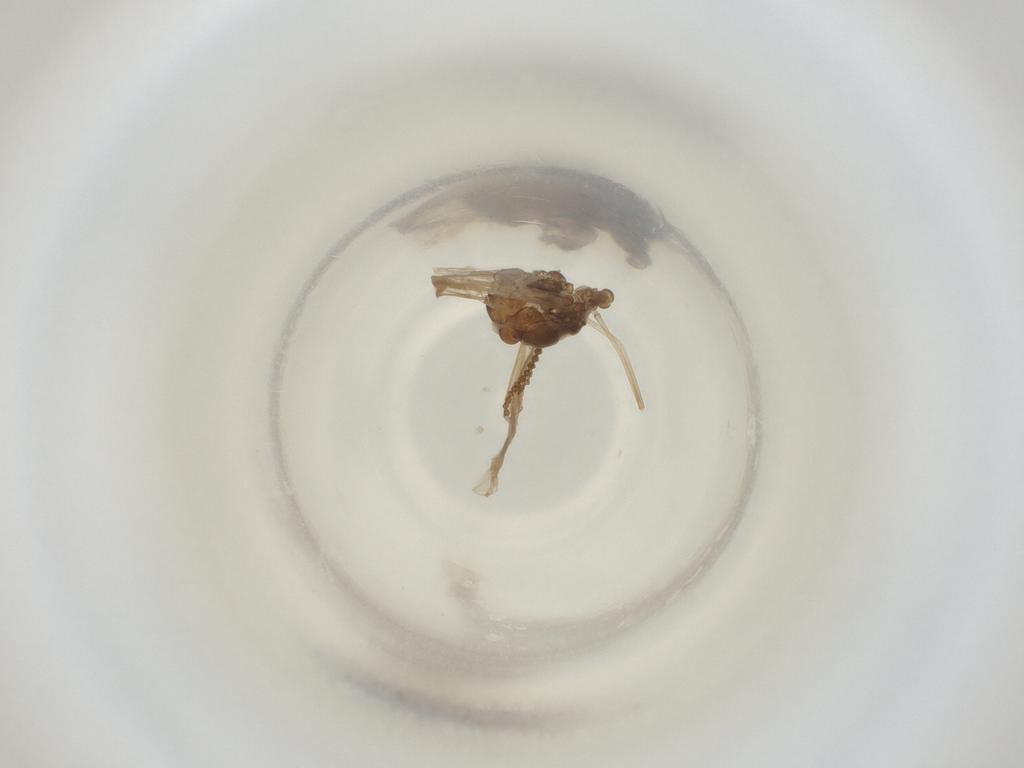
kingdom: Animalia
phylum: Arthropoda
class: Insecta
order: Diptera
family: Cecidomyiidae
